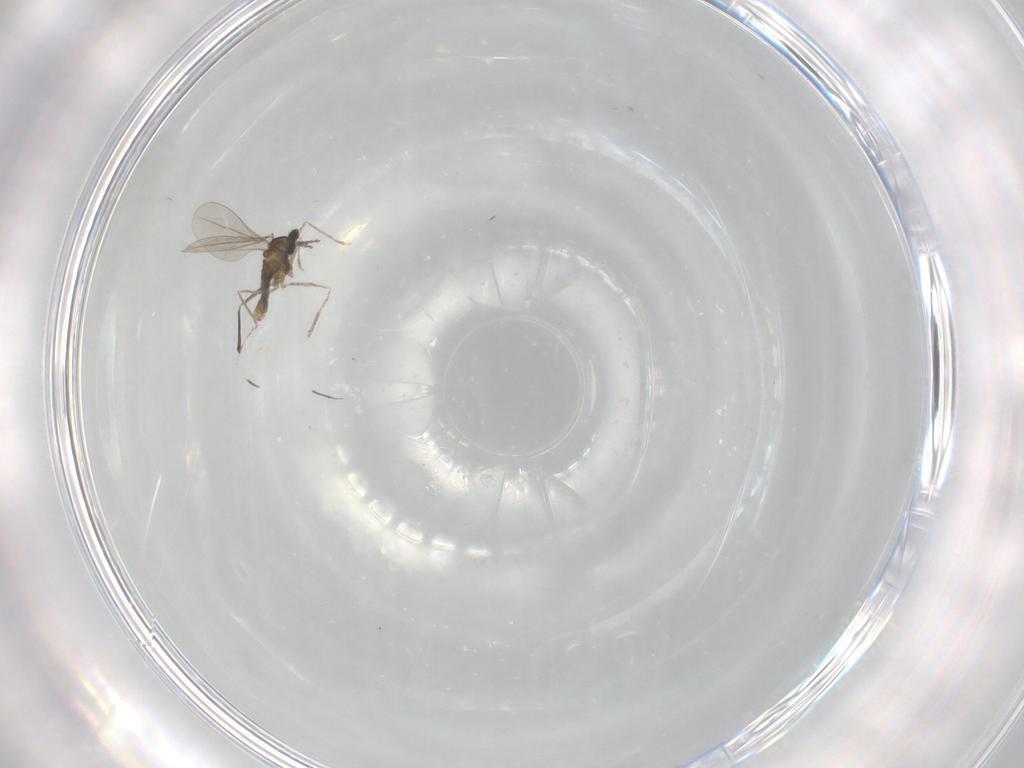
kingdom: Animalia
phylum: Arthropoda
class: Insecta
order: Diptera
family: Cecidomyiidae
